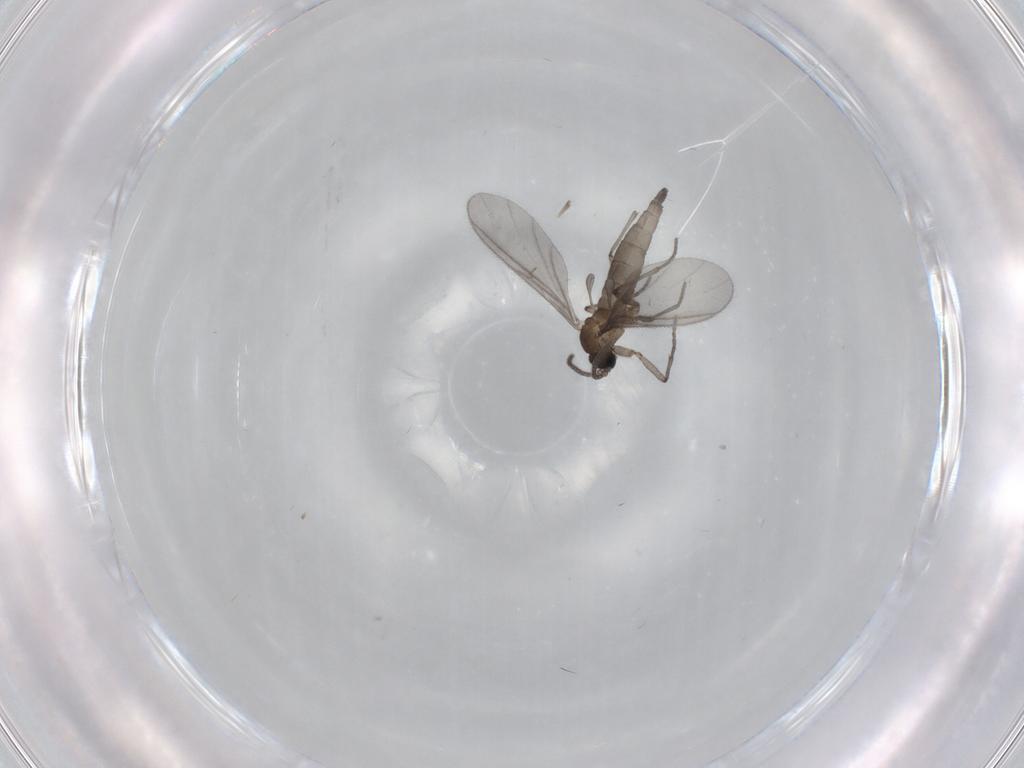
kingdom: Animalia
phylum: Arthropoda
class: Insecta
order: Diptera
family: Sciaridae
